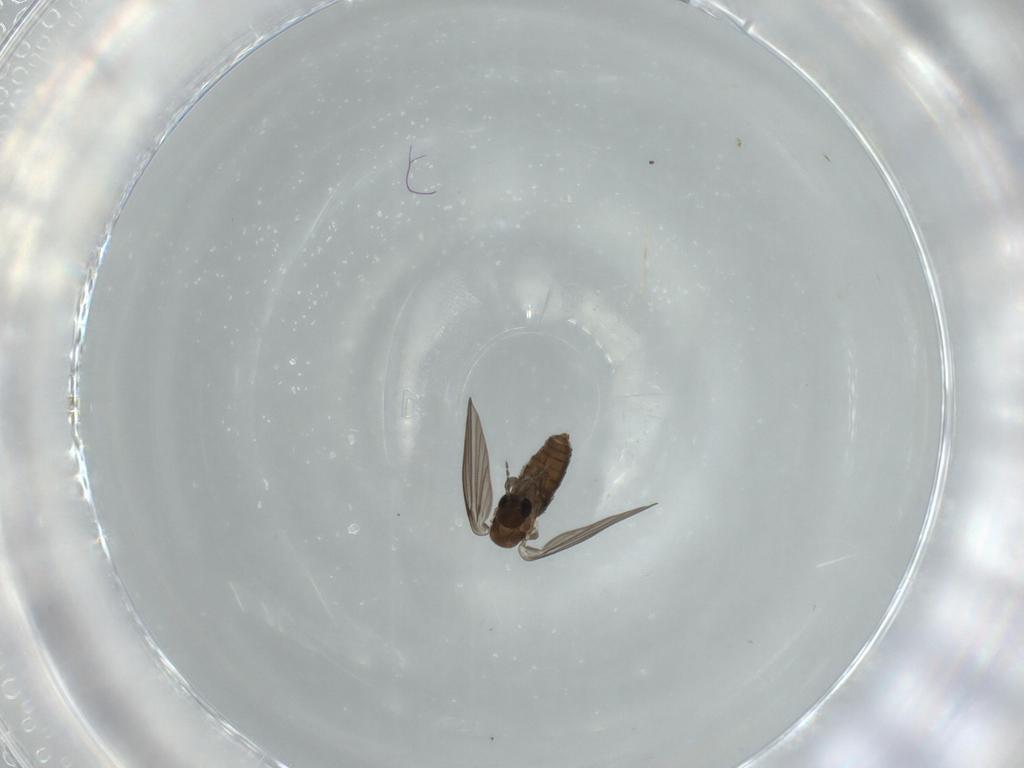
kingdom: Animalia
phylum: Arthropoda
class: Insecta
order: Diptera
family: Psychodidae
